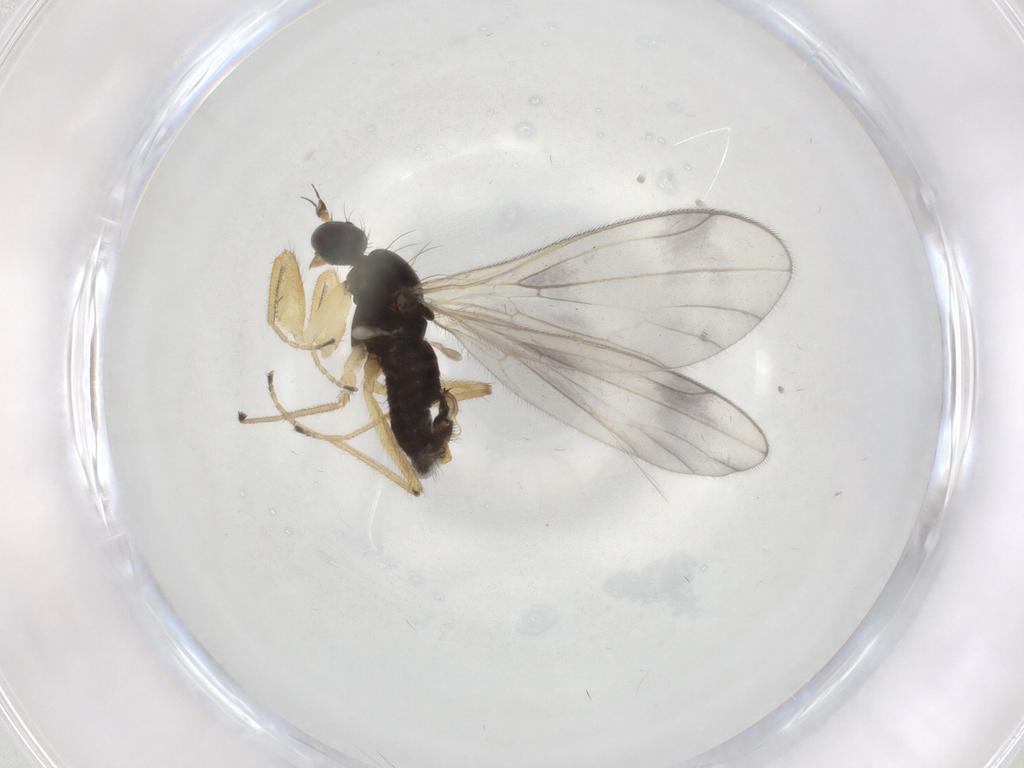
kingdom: Animalia
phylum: Arthropoda
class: Insecta
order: Diptera
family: Empididae
